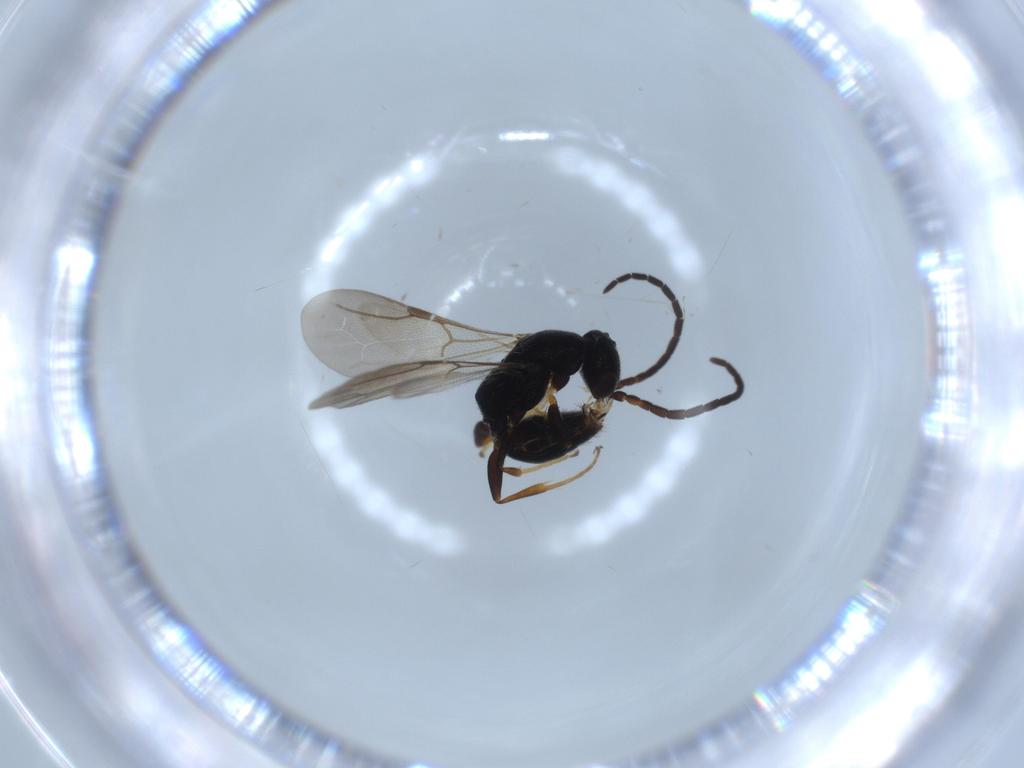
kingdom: Animalia
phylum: Arthropoda
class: Insecta
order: Hymenoptera
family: Bethylidae
